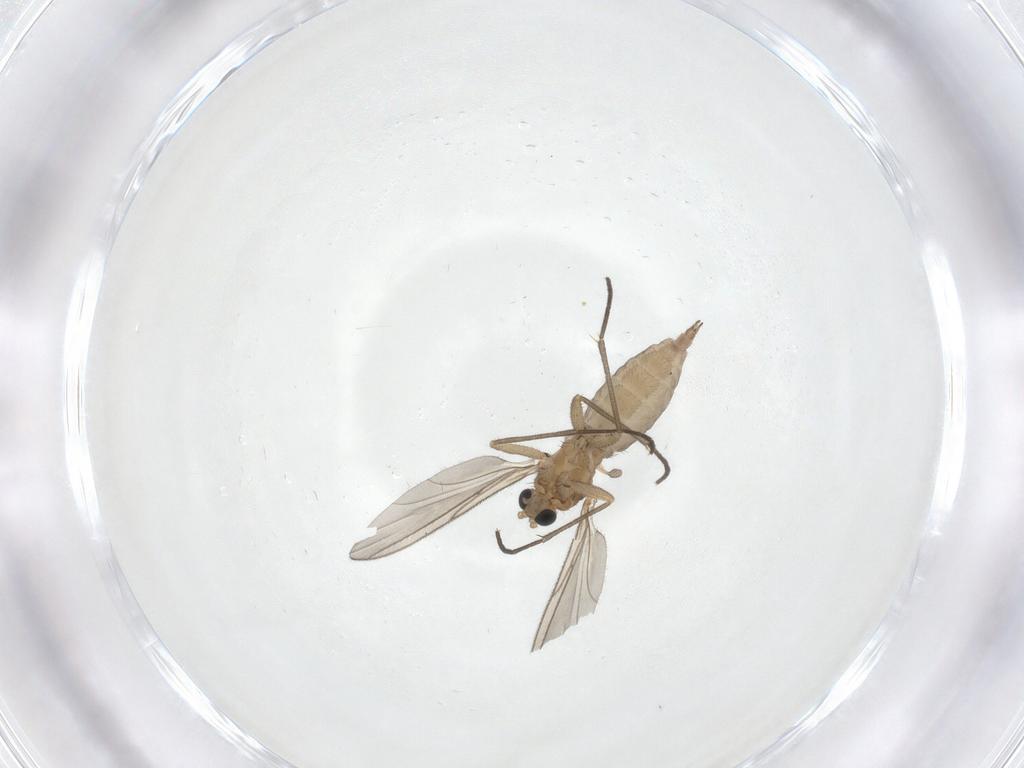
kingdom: Animalia
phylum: Arthropoda
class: Insecta
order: Diptera
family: Sciaridae
